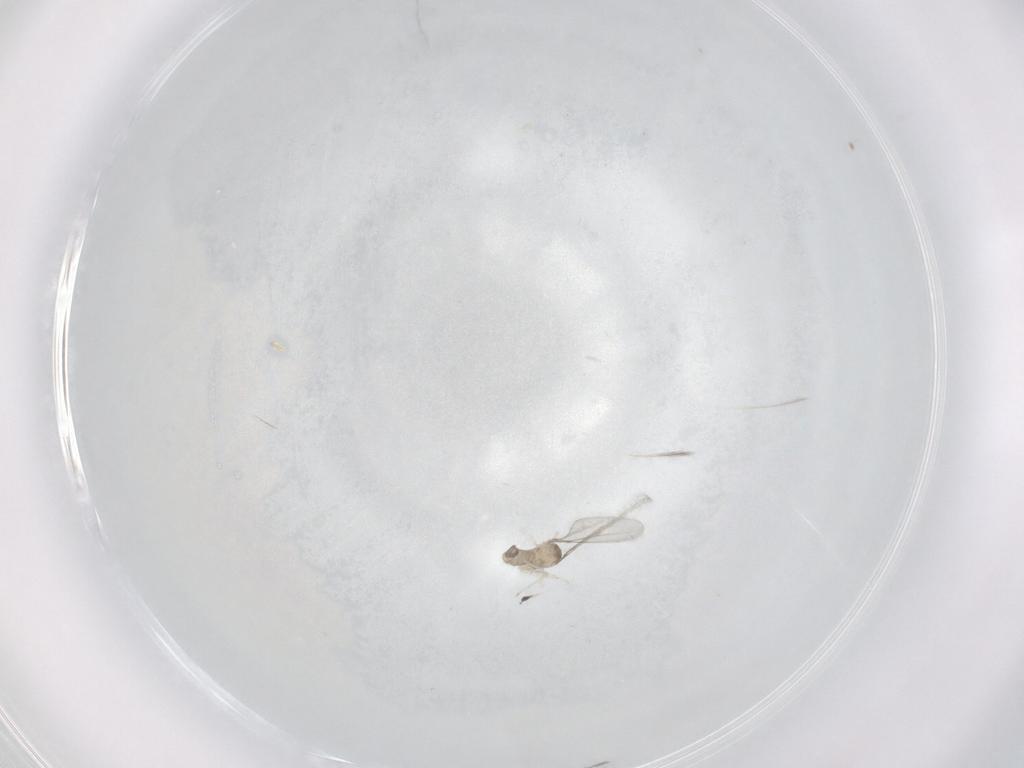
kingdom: Animalia
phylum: Arthropoda
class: Insecta
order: Diptera
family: Cecidomyiidae
